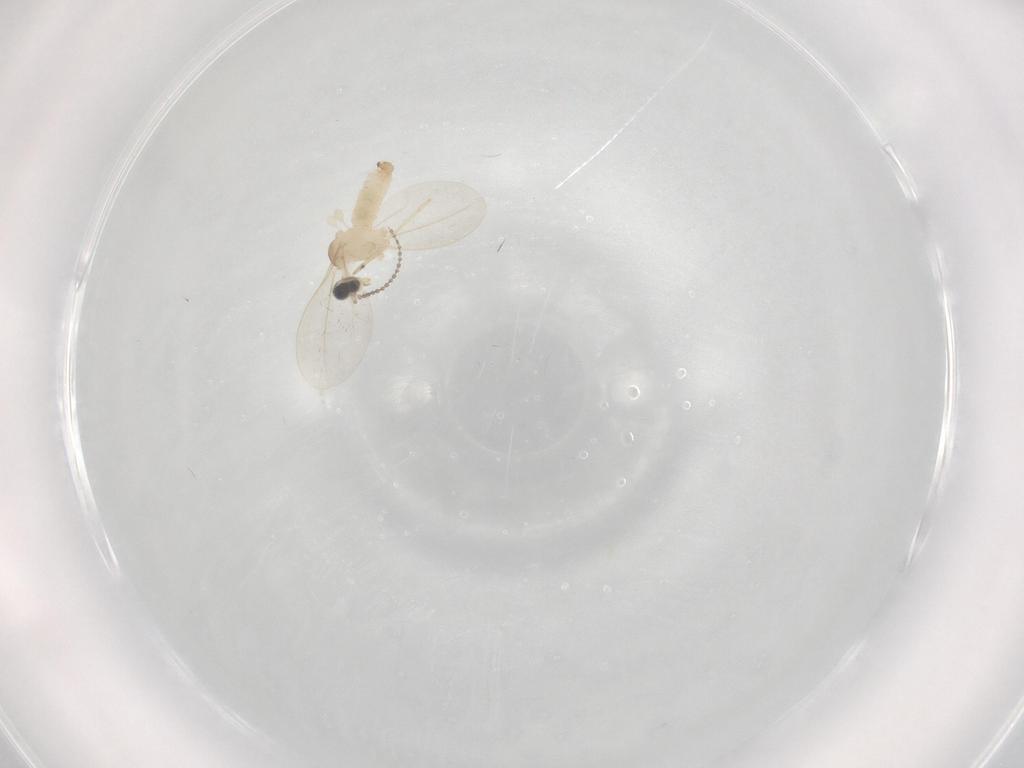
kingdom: Animalia
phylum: Arthropoda
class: Insecta
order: Diptera
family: Cecidomyiidae
